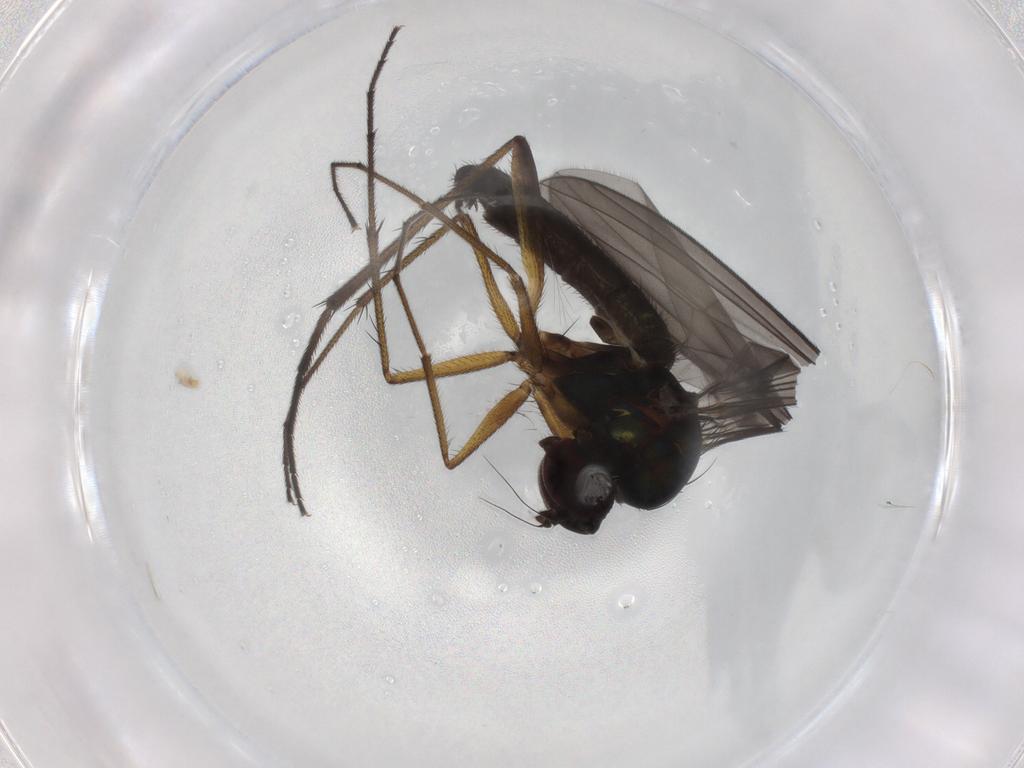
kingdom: Animalia
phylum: Arthropoda
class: Insecta
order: Diptera
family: Dolichopodidae
